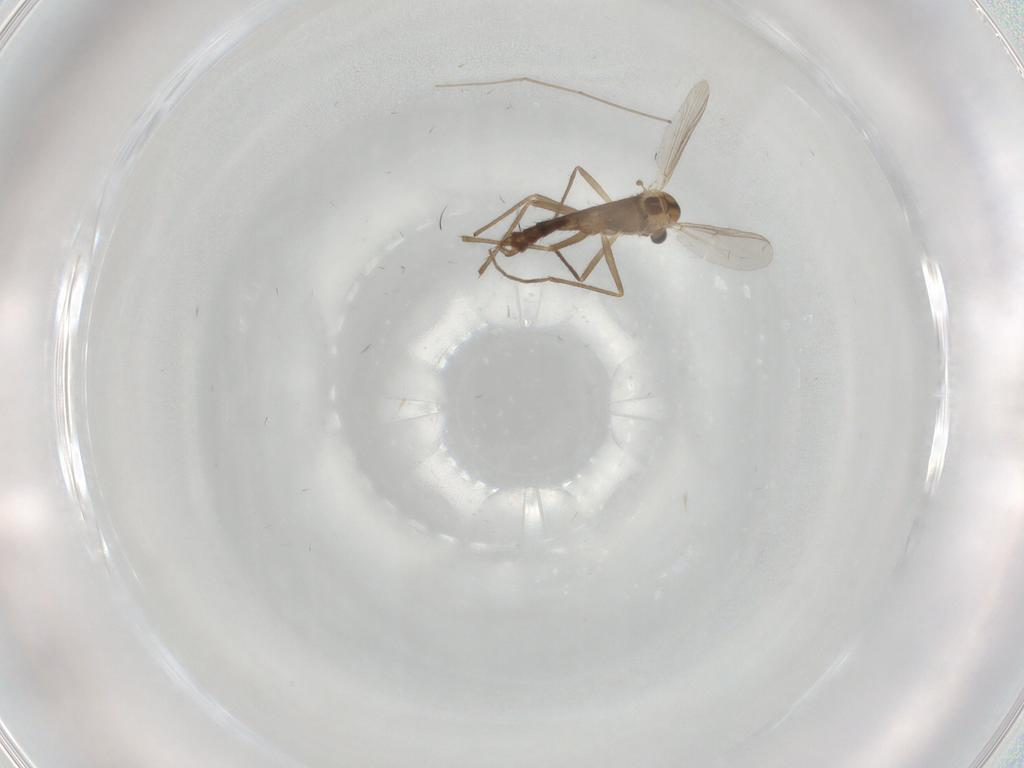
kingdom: Animalia
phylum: Arthropoda
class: Insecta
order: Diptera
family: Chironomidae
